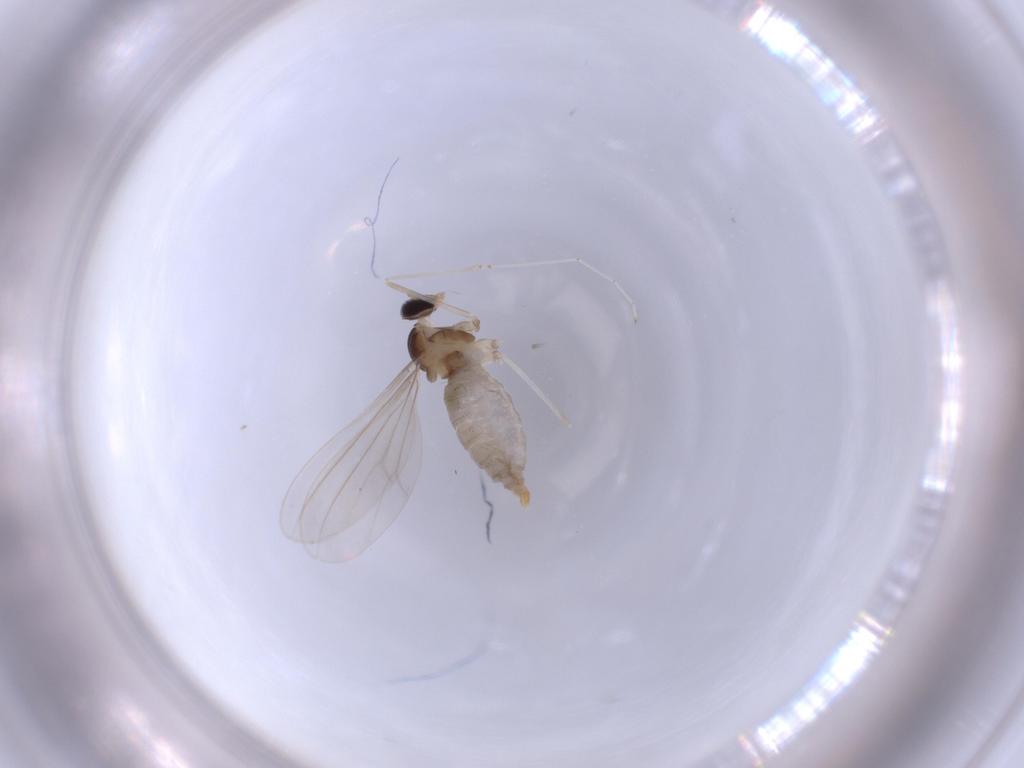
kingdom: Animalia
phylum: Arthropoda
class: Insecta
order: Diptera
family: Cecidomyiidae
